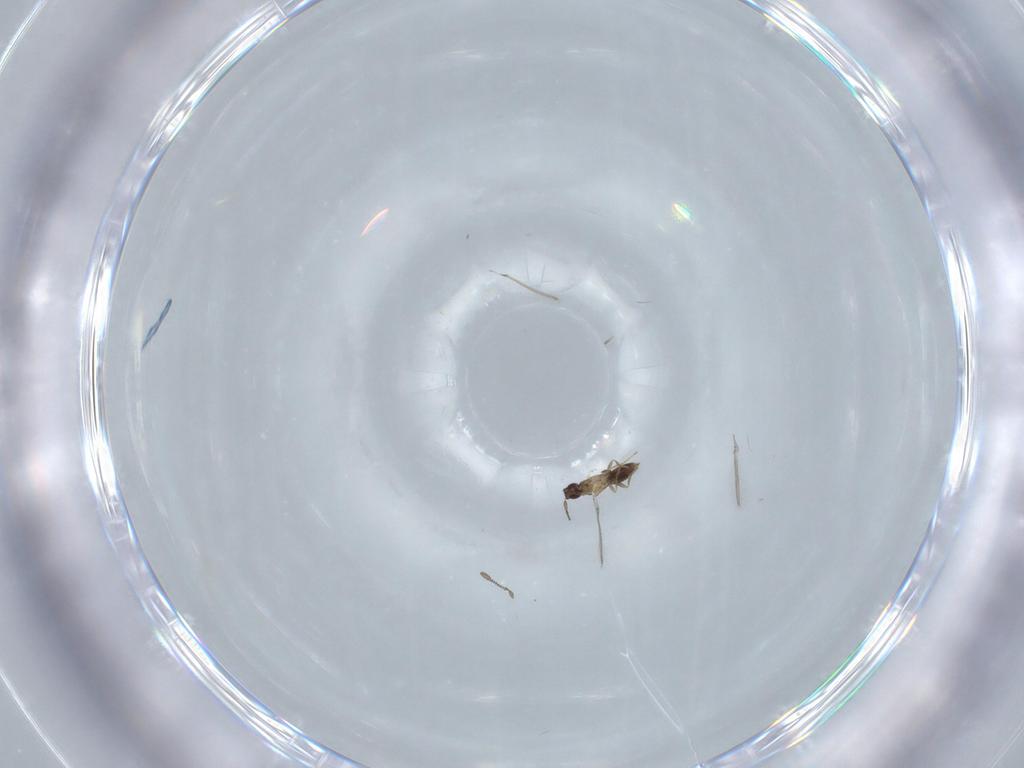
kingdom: Animalia
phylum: Arthropoda
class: Insecta
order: Hymenoptera
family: Mymaridae
